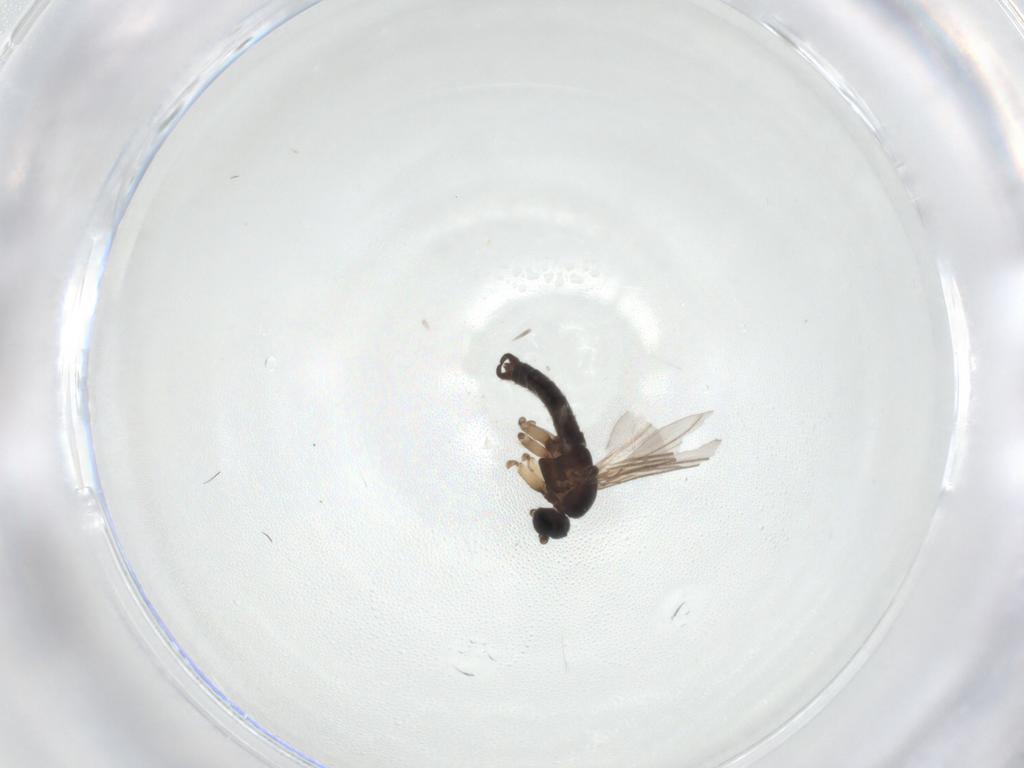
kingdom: Animalia
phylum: Arthropoda
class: Insecta
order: Diptera
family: Sciaridae
